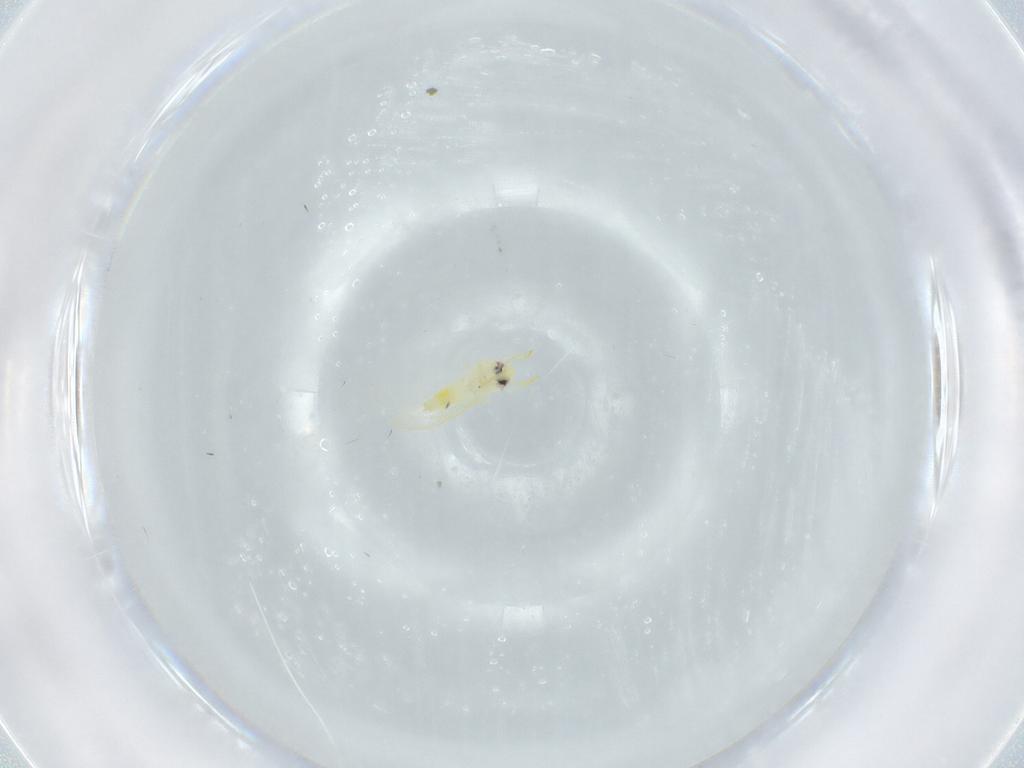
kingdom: Animalia
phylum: Arthropoda
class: Insecta
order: Hemiptera
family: Aleyrodidae
